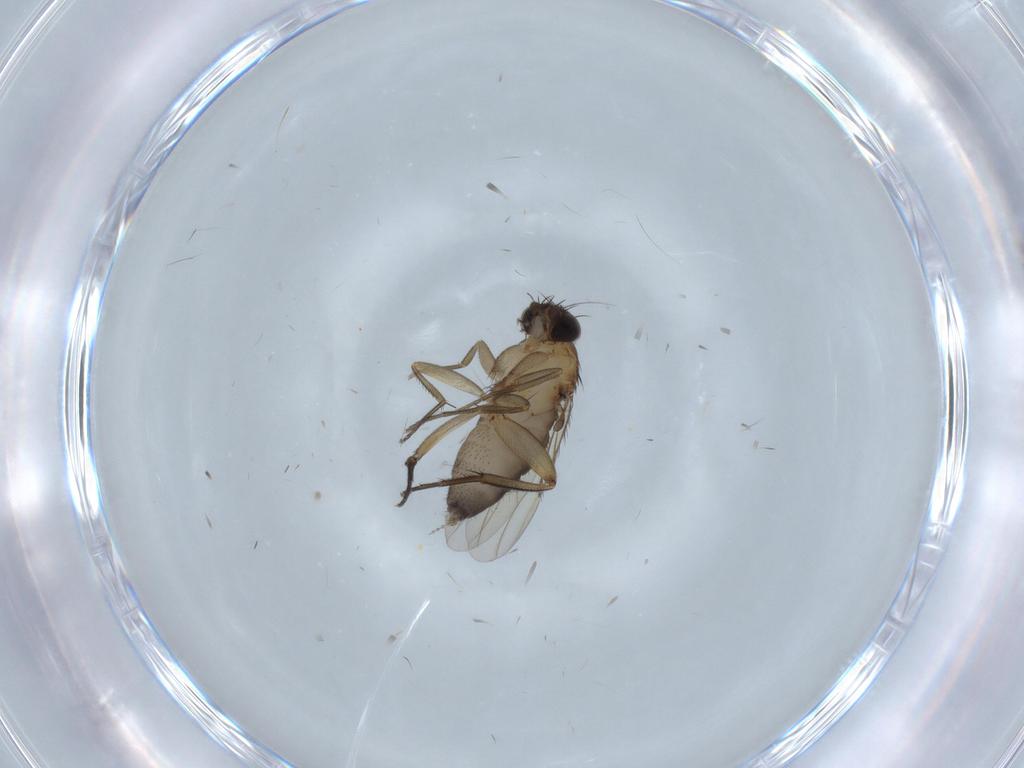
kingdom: Animalia
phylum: Arthropoda
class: Insecta
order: Diptera
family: Phoridae
